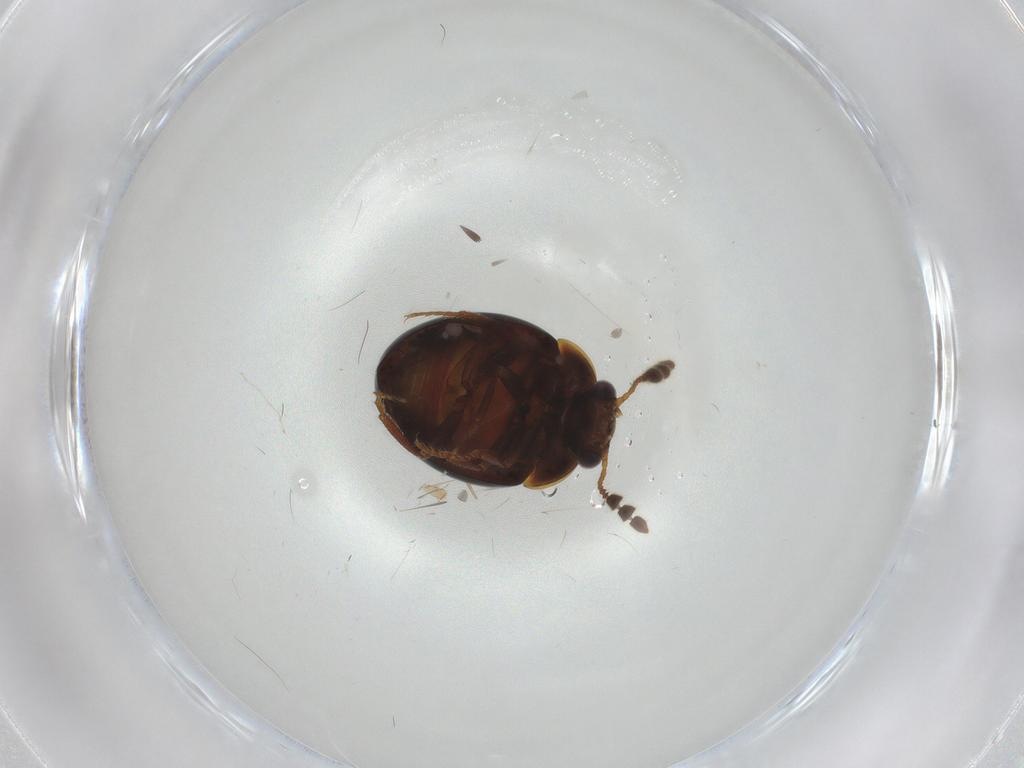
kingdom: Animalia
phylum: Arthropoda
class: Insecta
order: Coleoptera
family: Leiodidae
